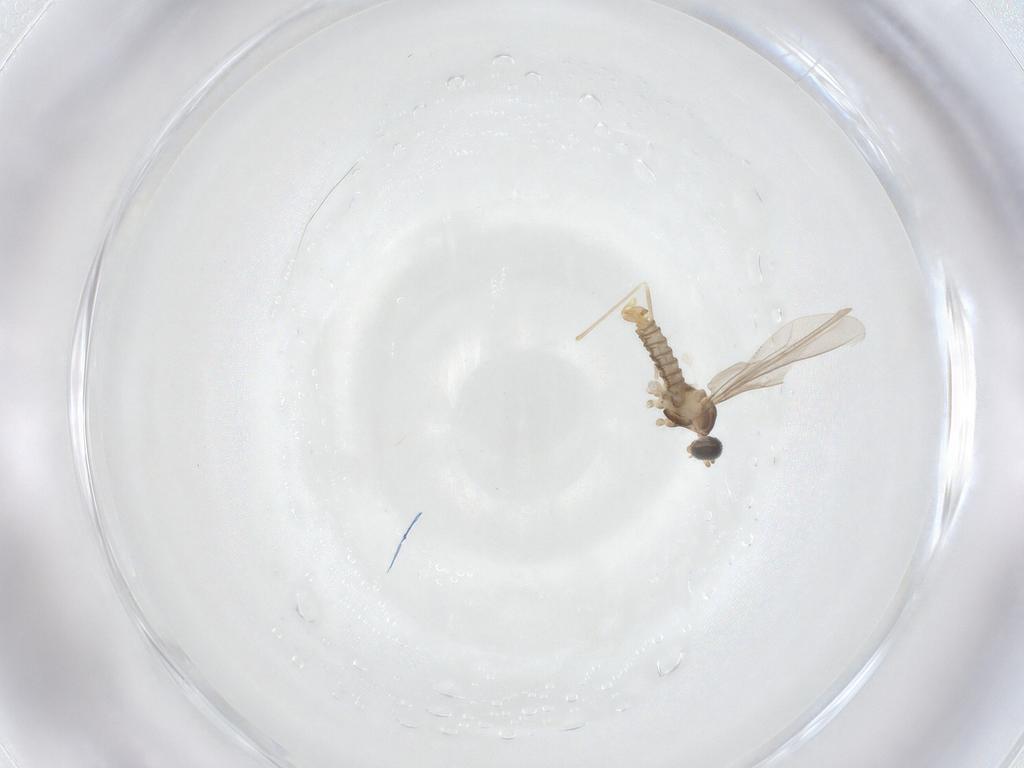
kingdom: Animalia
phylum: Arthropoda
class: Insecta
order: Diptera
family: Cecidomyiidae
